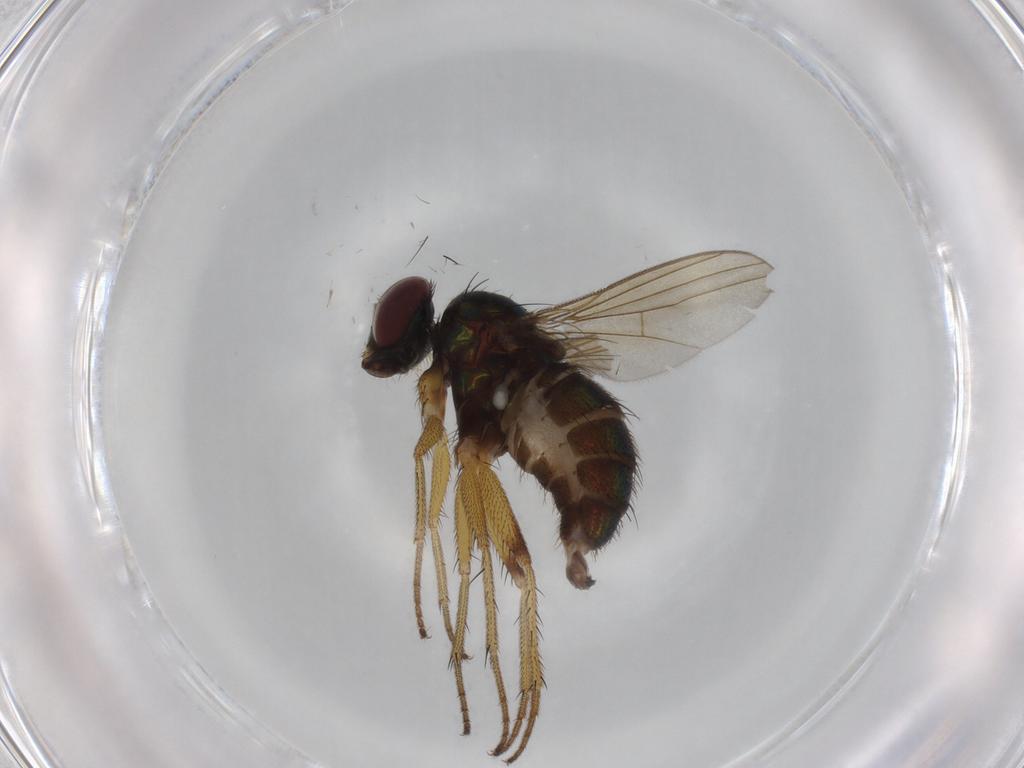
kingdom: Animalia
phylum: Arthropoda
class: Insecta
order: Diptera
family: Dolichopodidae
